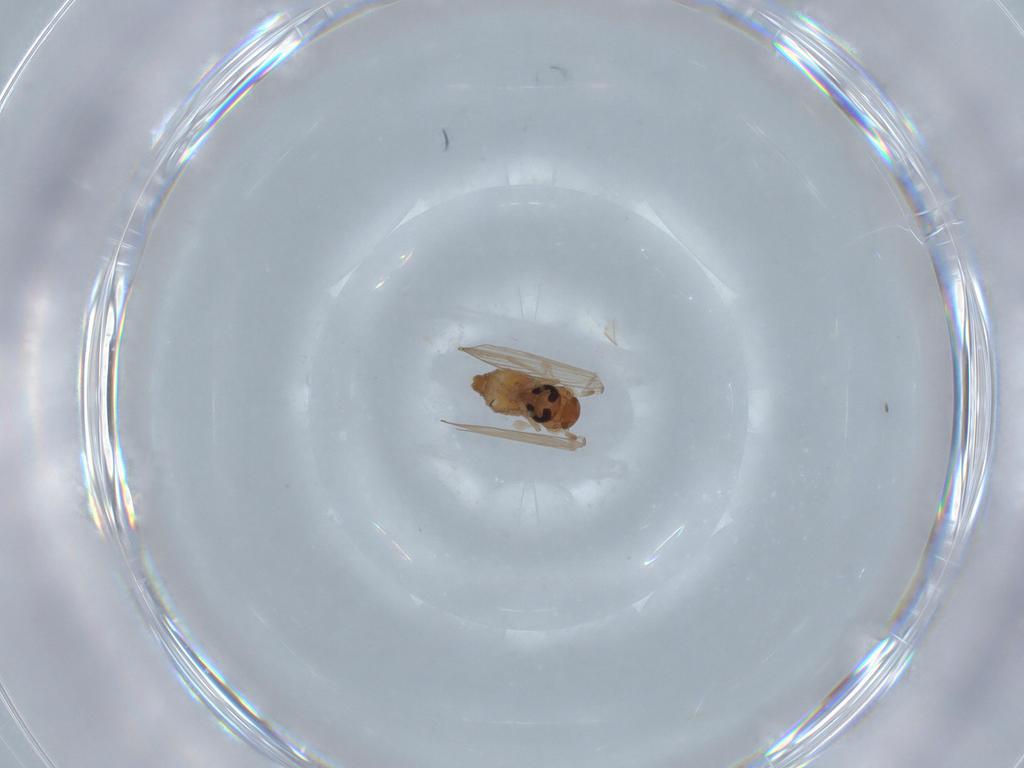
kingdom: Animalia
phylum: Arthropoda
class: Insecta
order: Diptera
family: Psychodidae
